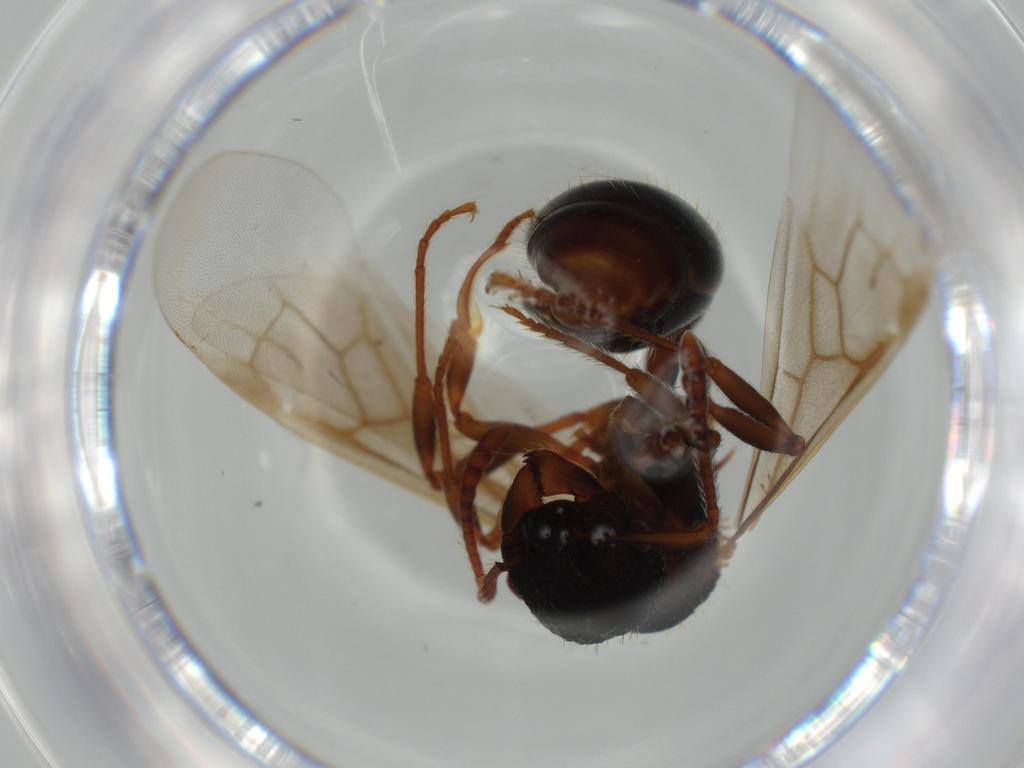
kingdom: Animalia
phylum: Arthropoda
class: Insecta
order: Hymenoptera
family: Formicidae
